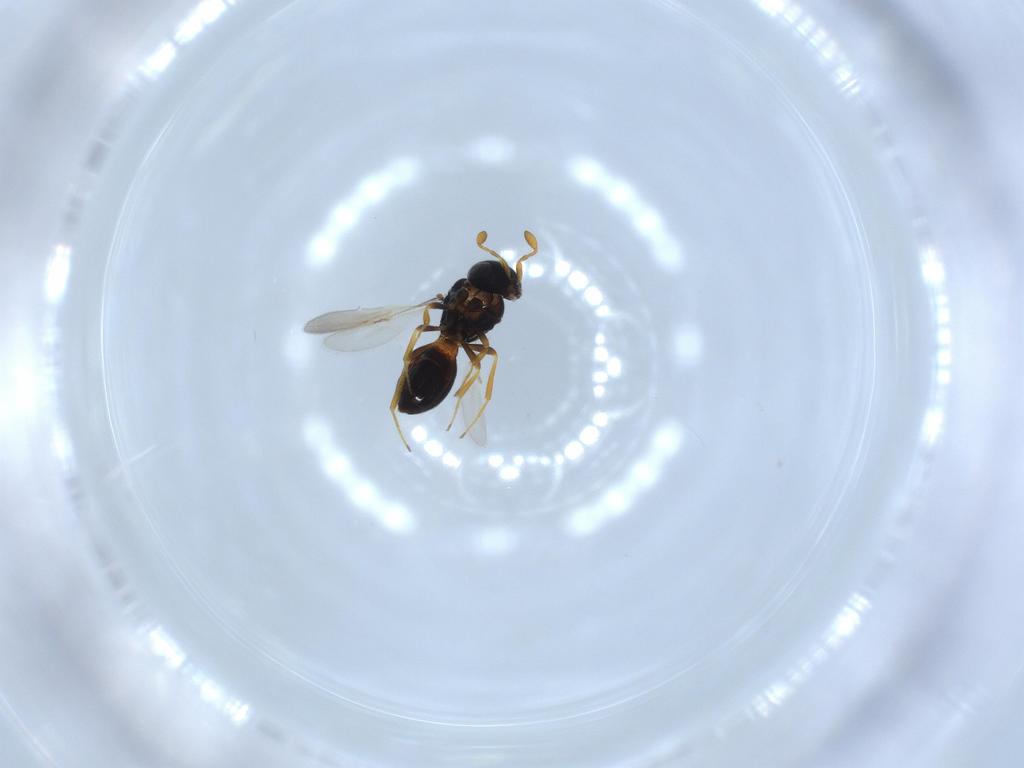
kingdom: Animalia
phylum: Arthropoda
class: Insecta
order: Hymenoptera
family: Scelionidae
